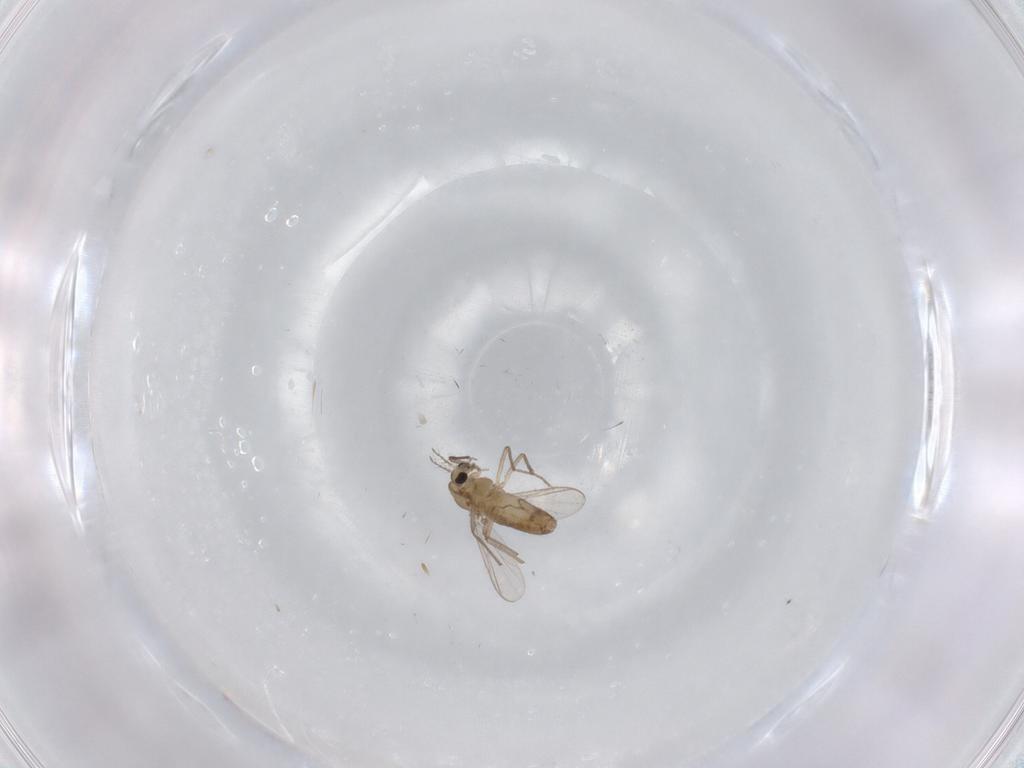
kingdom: Animalia
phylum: Arthropoda
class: Insecta
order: Diptera
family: Chironomidae
